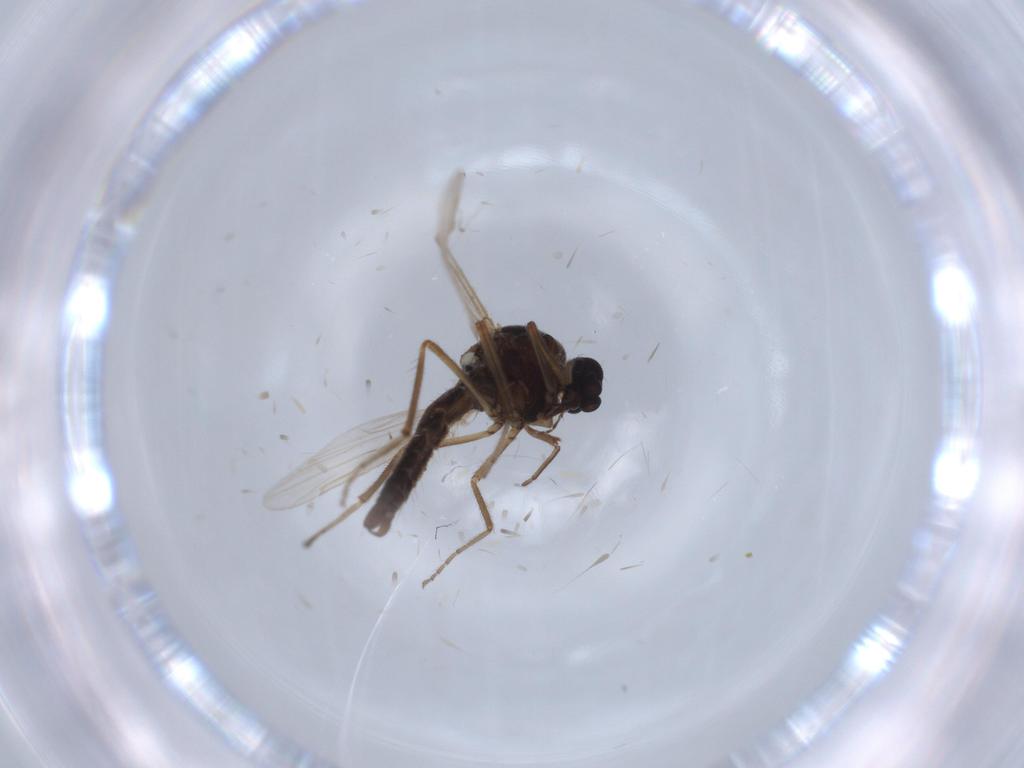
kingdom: Animalia
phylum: Arthropoda
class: Insecta
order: Diptera
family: Ceratopogonidae
